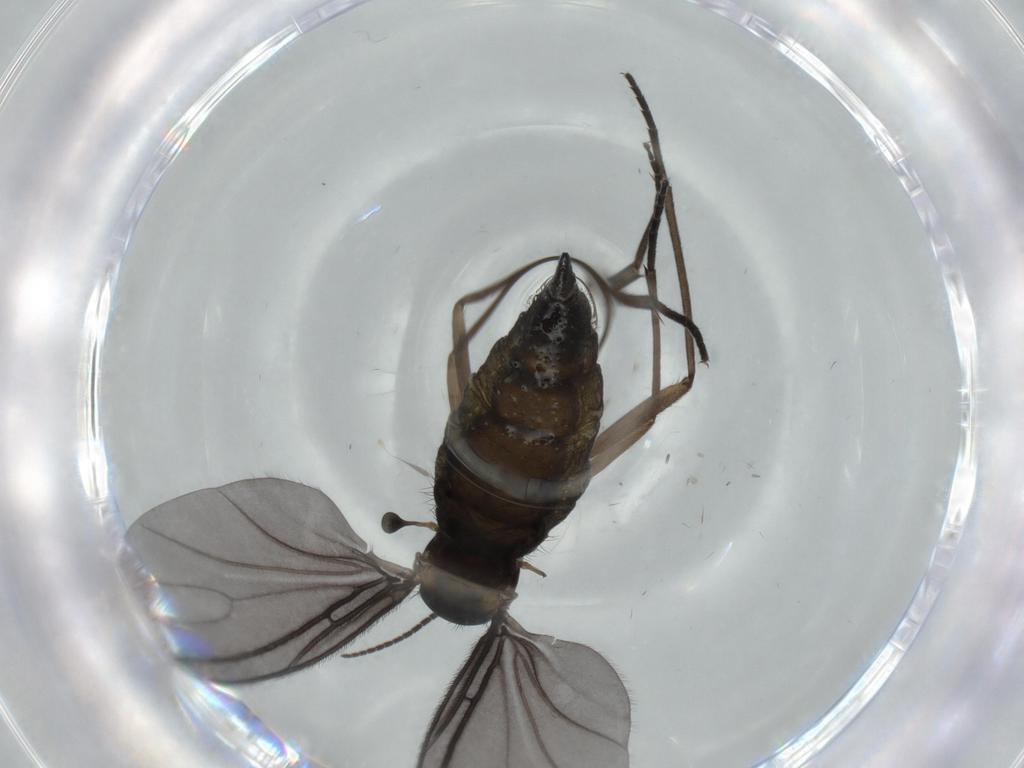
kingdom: Animalia
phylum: Arthropoda
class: Insecta
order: Diptera
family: Sciaridae
